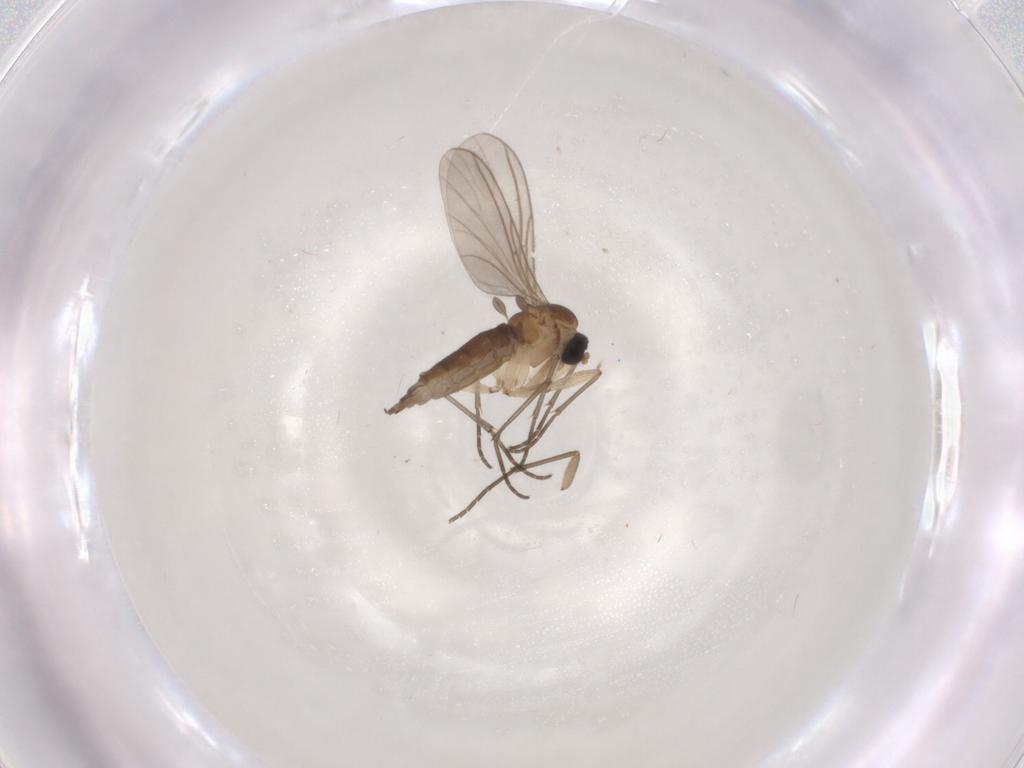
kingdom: Animalia
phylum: Arthropoda
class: Insecta
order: Diptera
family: Sciaridae
